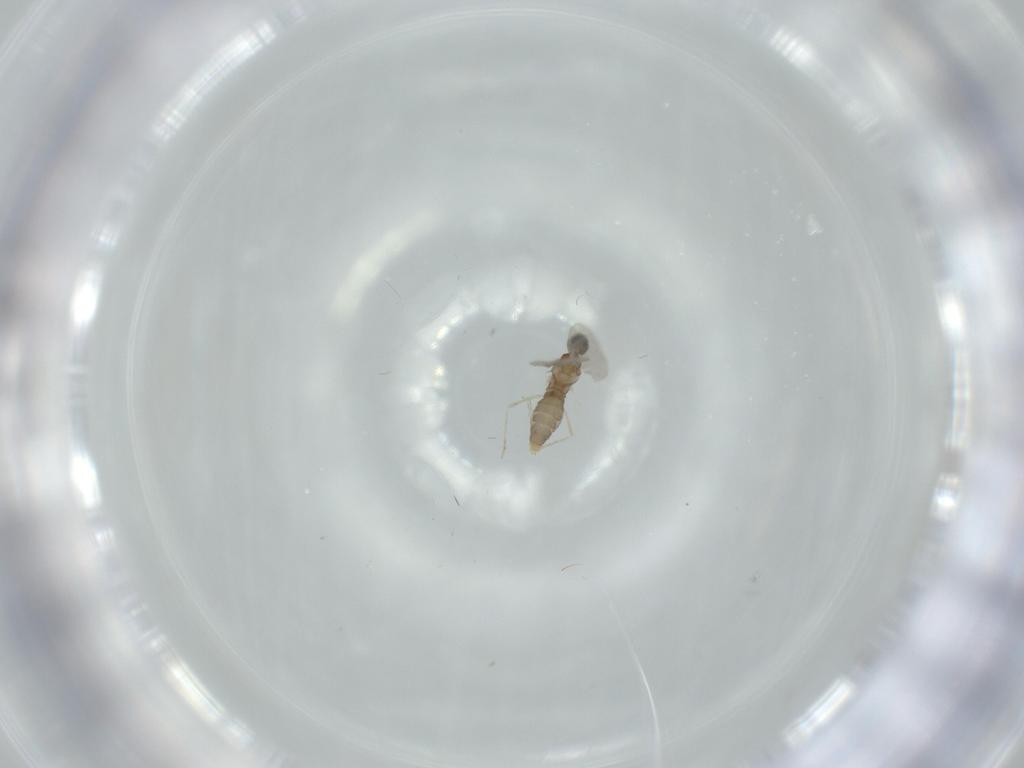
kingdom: Animalia
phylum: Arthropoda
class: Insecta
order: Diptera
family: Cecidomyiidae
